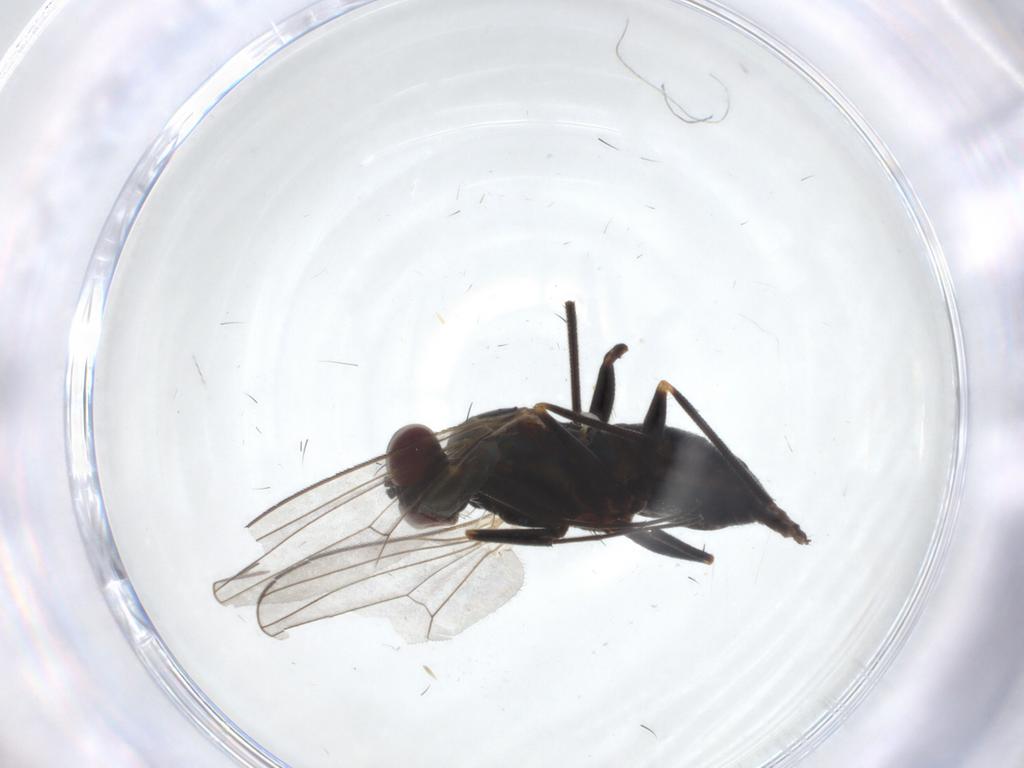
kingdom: Animalia
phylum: Arthropoda
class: Insecta
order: Diptera
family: Dolichopodidae
